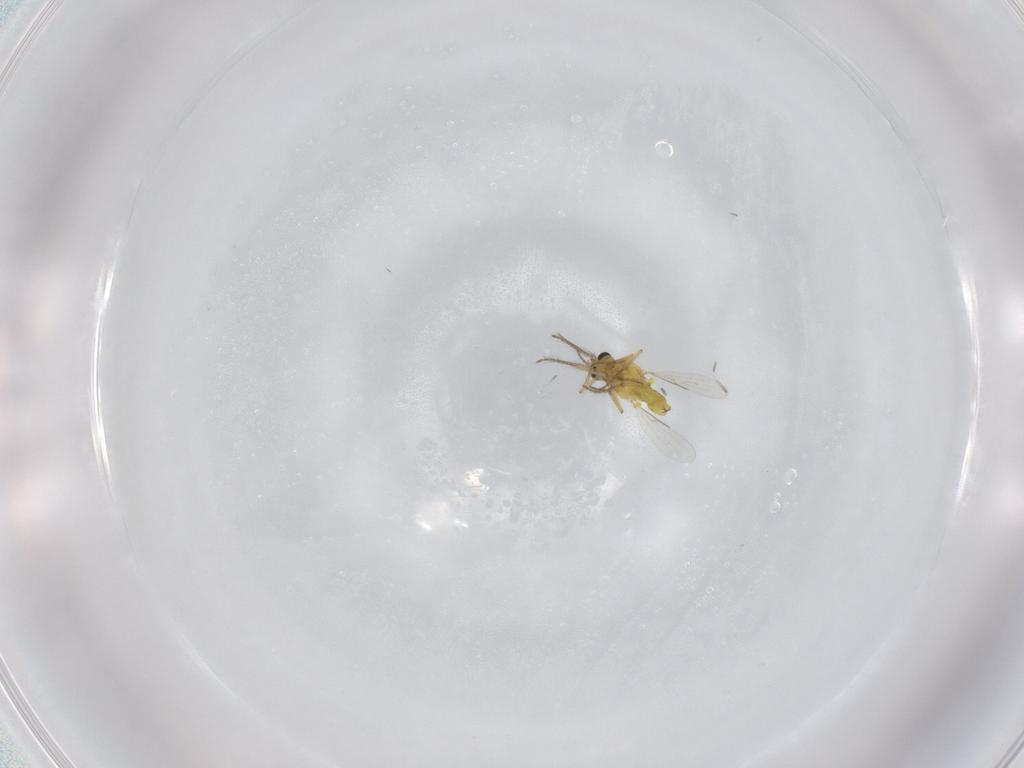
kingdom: Animalia
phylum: Arthropoda
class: Insecta
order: Diptera
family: Ceratopogonidae
